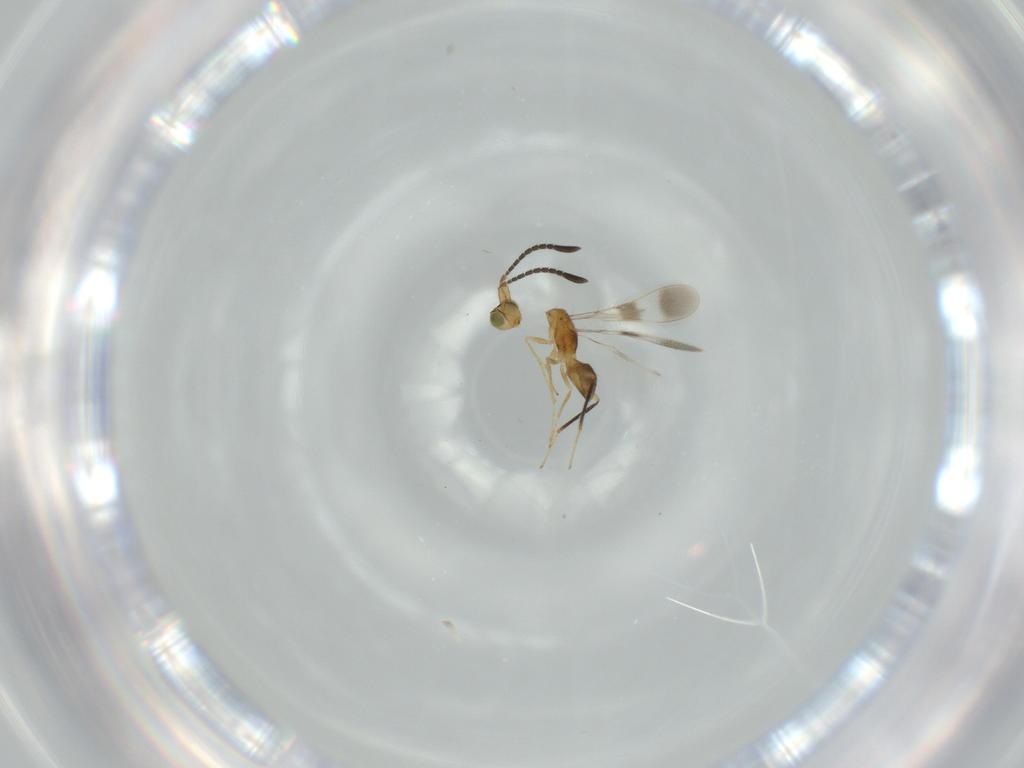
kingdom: Animalia
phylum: Arthropoda
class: Insecta
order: Hymenoptera
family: Mymaridae
